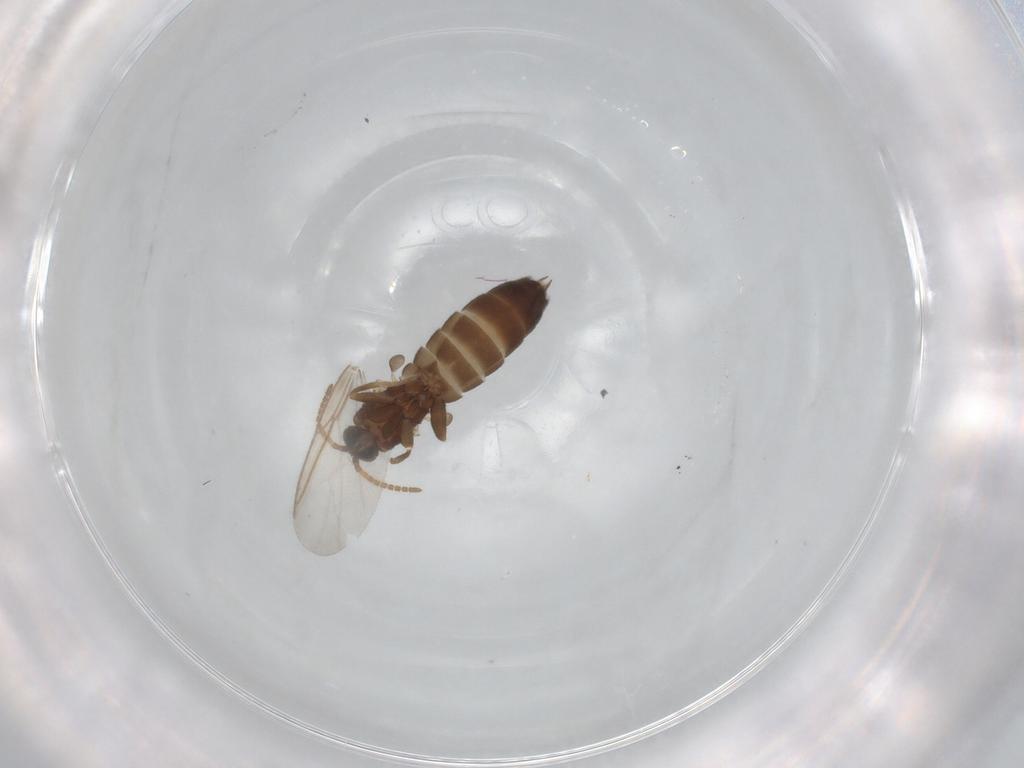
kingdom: Animalia
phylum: Arthropoda
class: Insecta
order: Diptera
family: Scatopsidae
